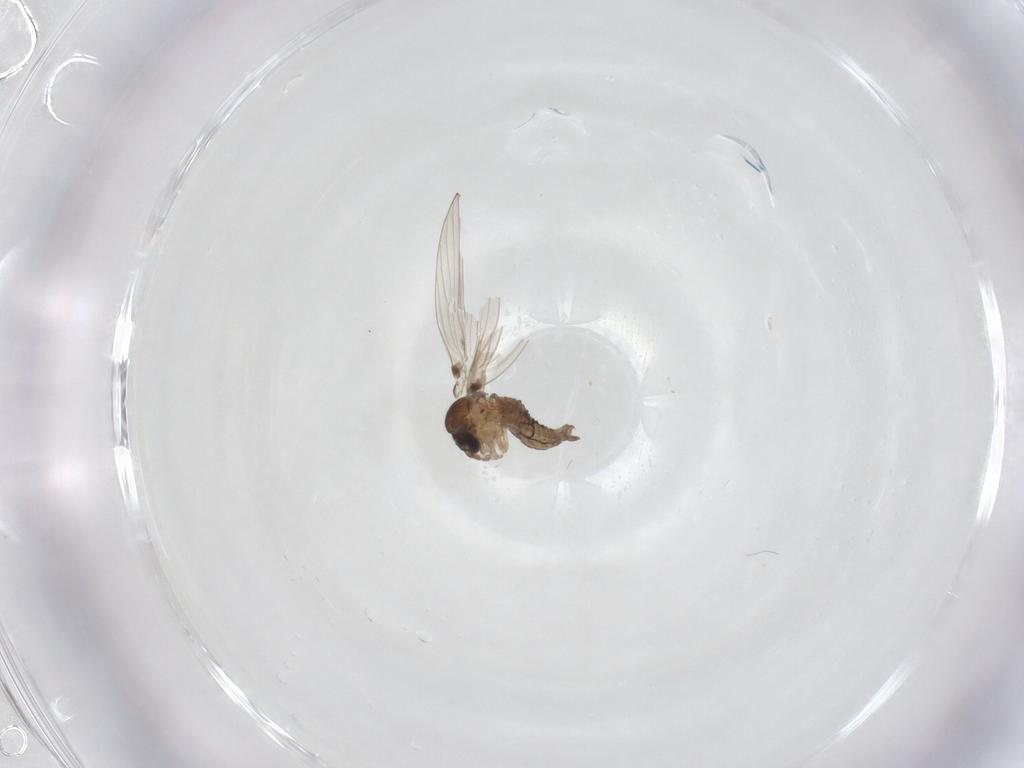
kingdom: Animalia
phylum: Arthropoda
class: Insecta
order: Diptera
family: Psychodidae
